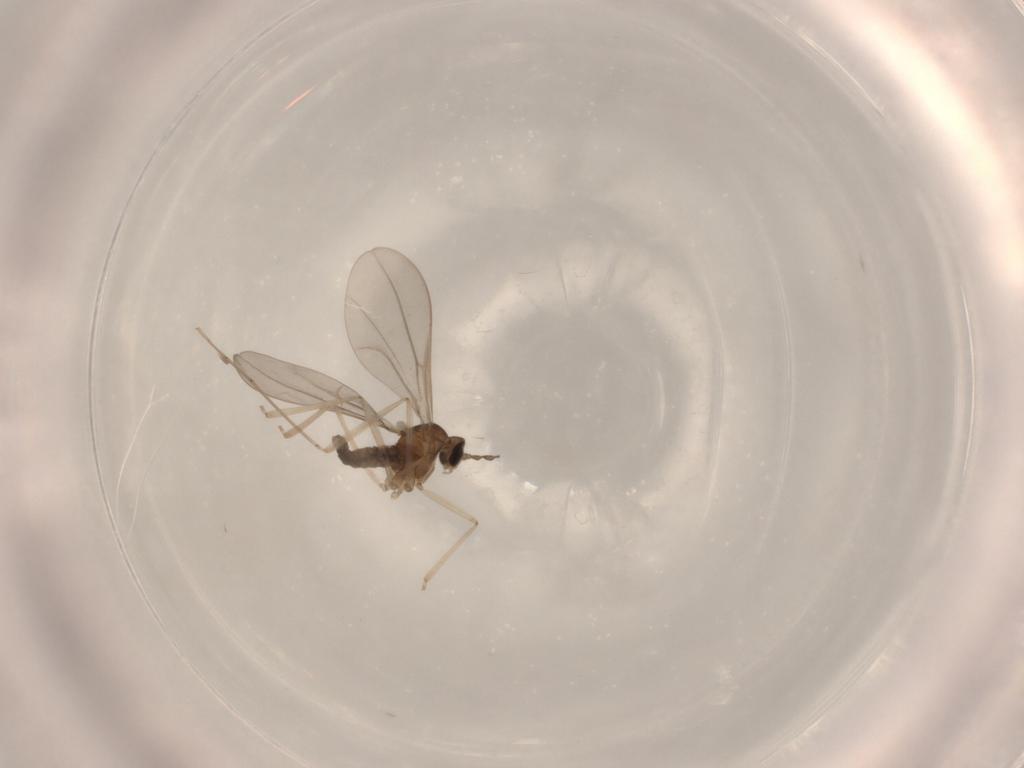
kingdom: Animalia
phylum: Arthropoda
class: Insecta
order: Diptera
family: Cecidomyiidae
